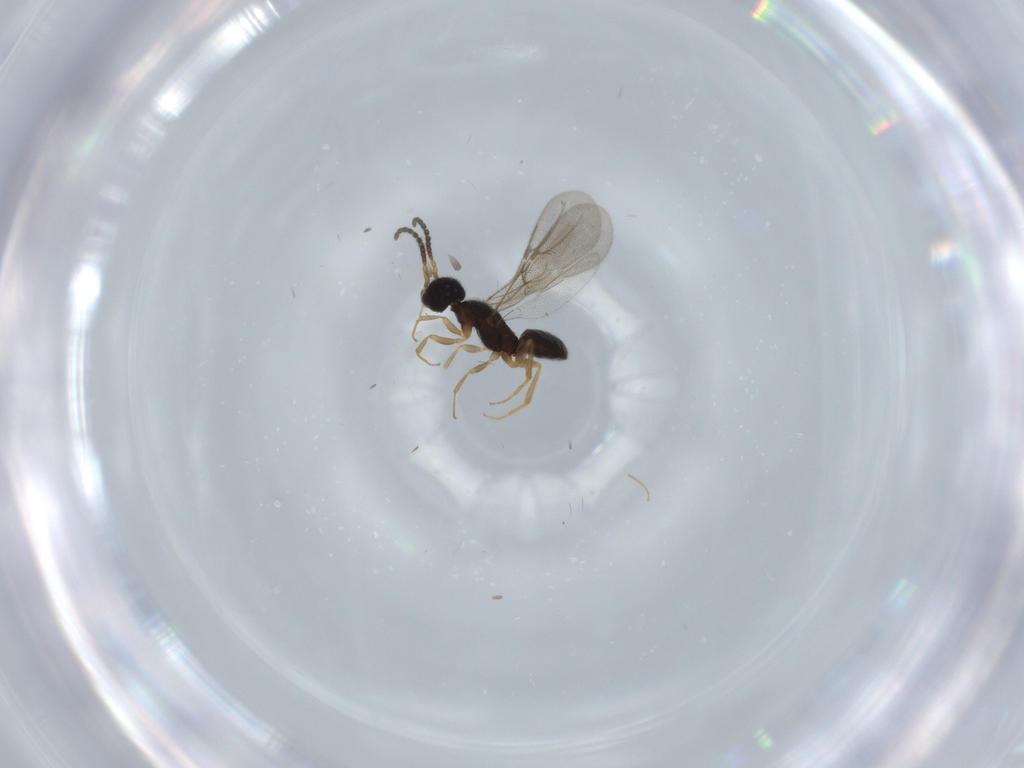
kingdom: Animalia
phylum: Arthropoda
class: Insecta
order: Hymenoptera
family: Bethylidae
